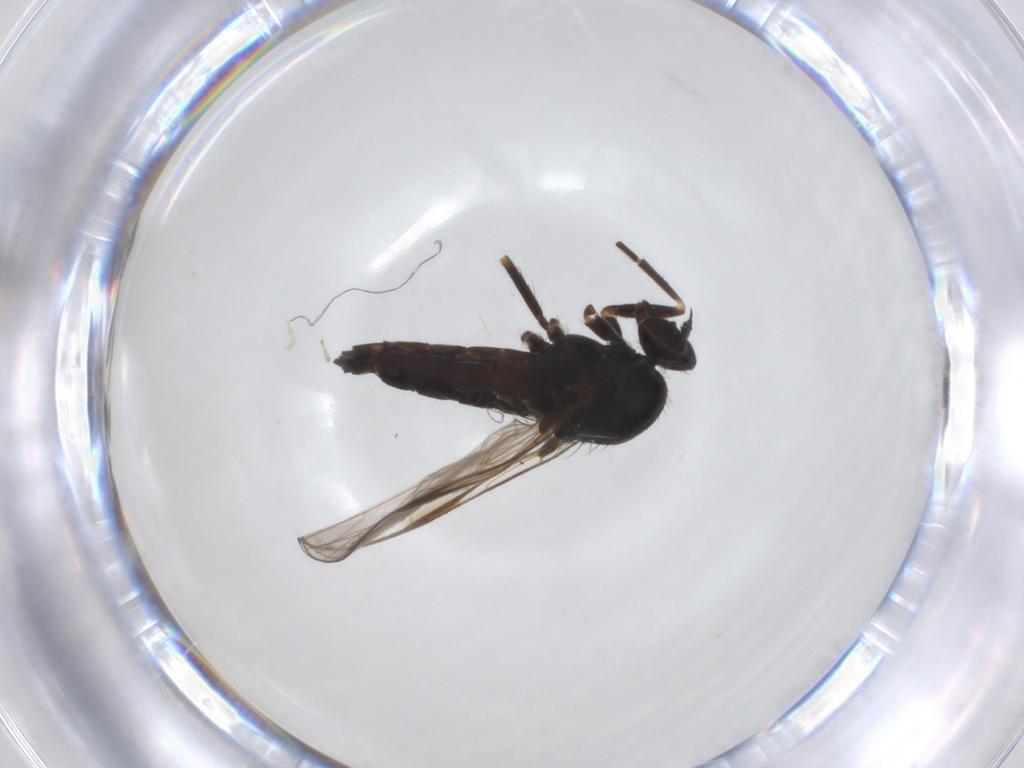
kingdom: Animalia
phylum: Arthropoda
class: Insecta
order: Diptera
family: Empididae
